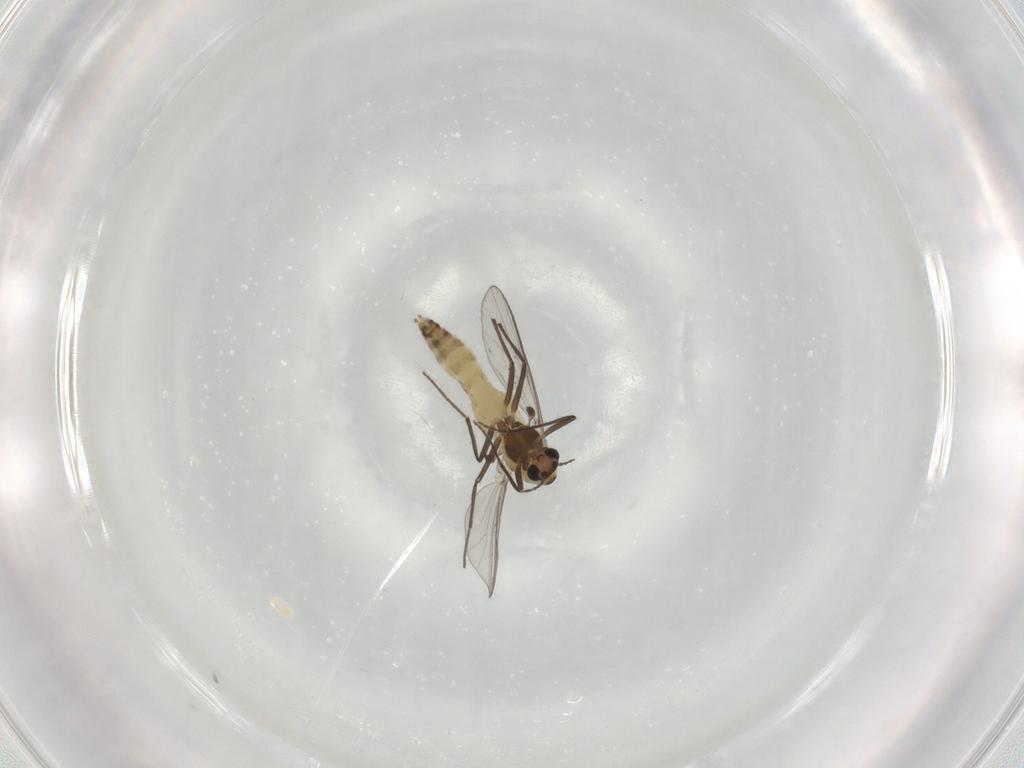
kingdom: Animalia
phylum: Arthropoda
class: Insecta
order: Diptera
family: Chironomidae
